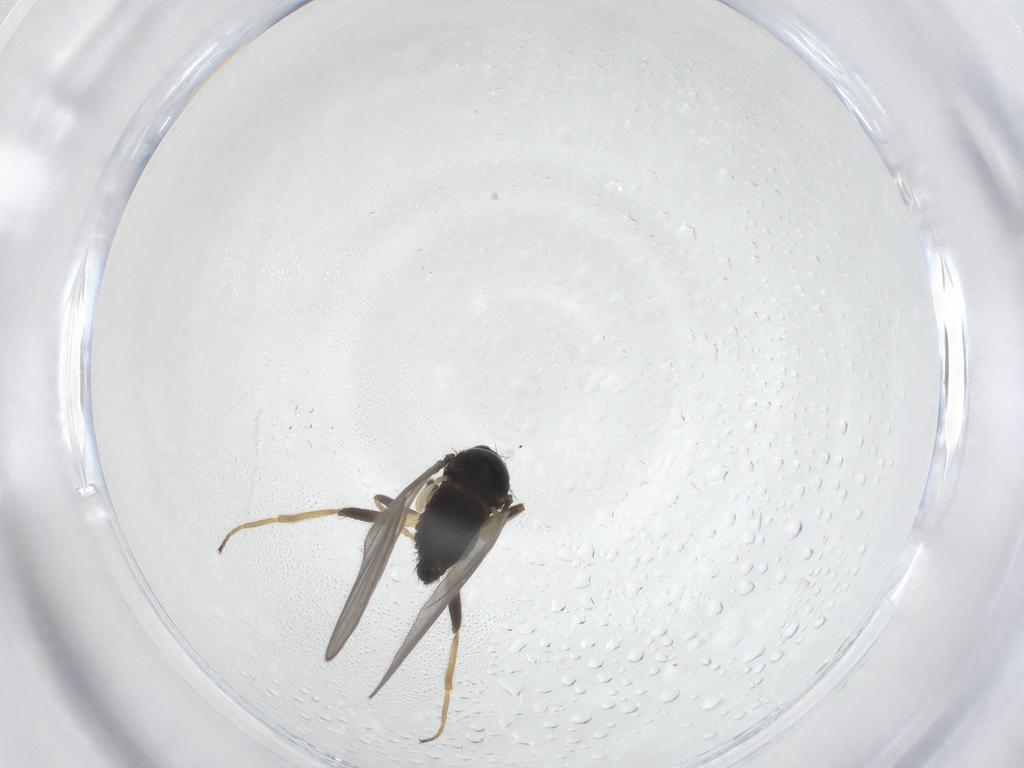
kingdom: Animalia
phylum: Arthropoda
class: Insecta
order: Diptera
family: Hybotidae
